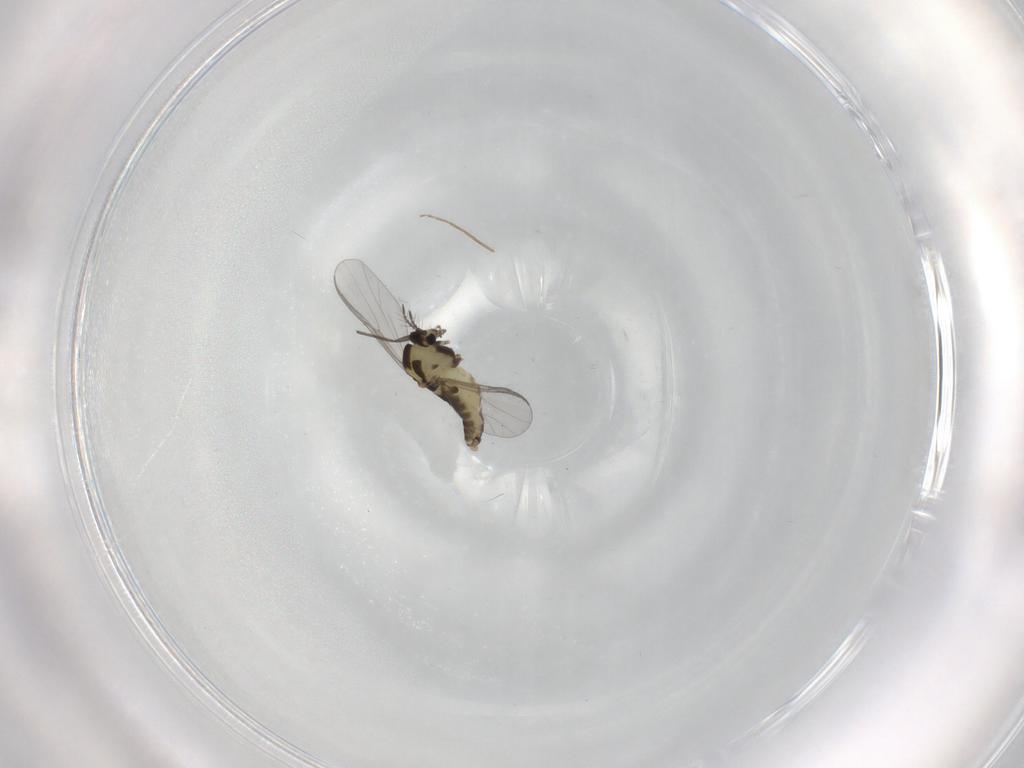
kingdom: Animalia
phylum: Arthropoda
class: Insecta
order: Diptera
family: Chironomidae
